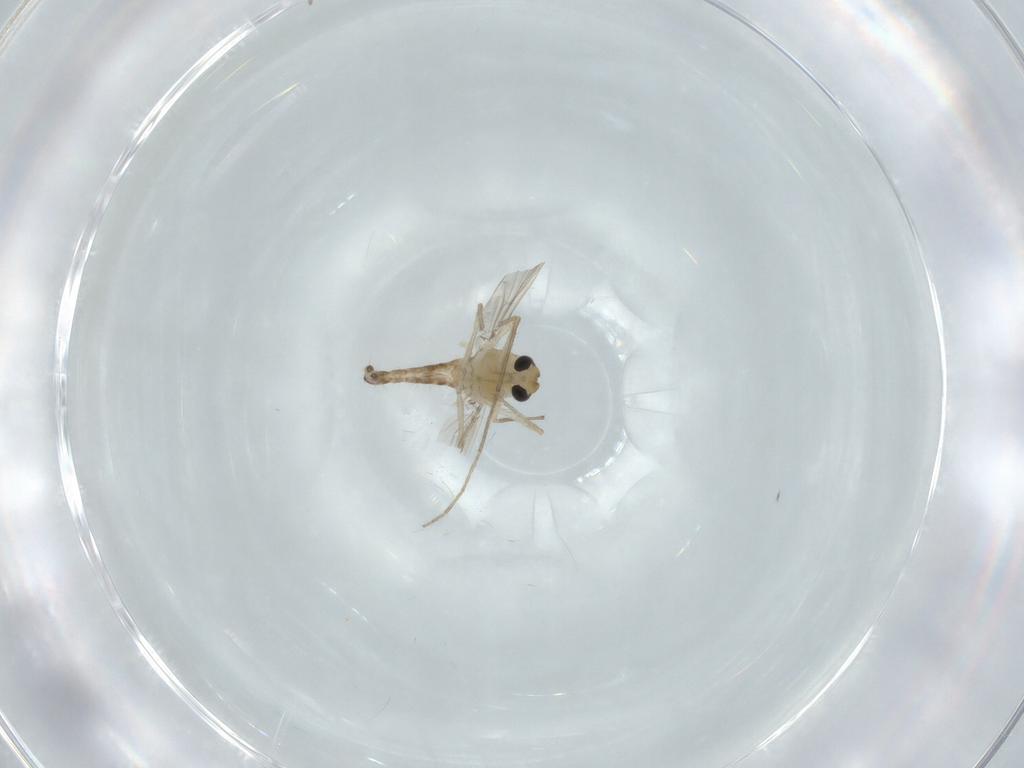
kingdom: Animalia
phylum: Arthropoda
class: Insecta
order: Diptera
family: Chironomidae
